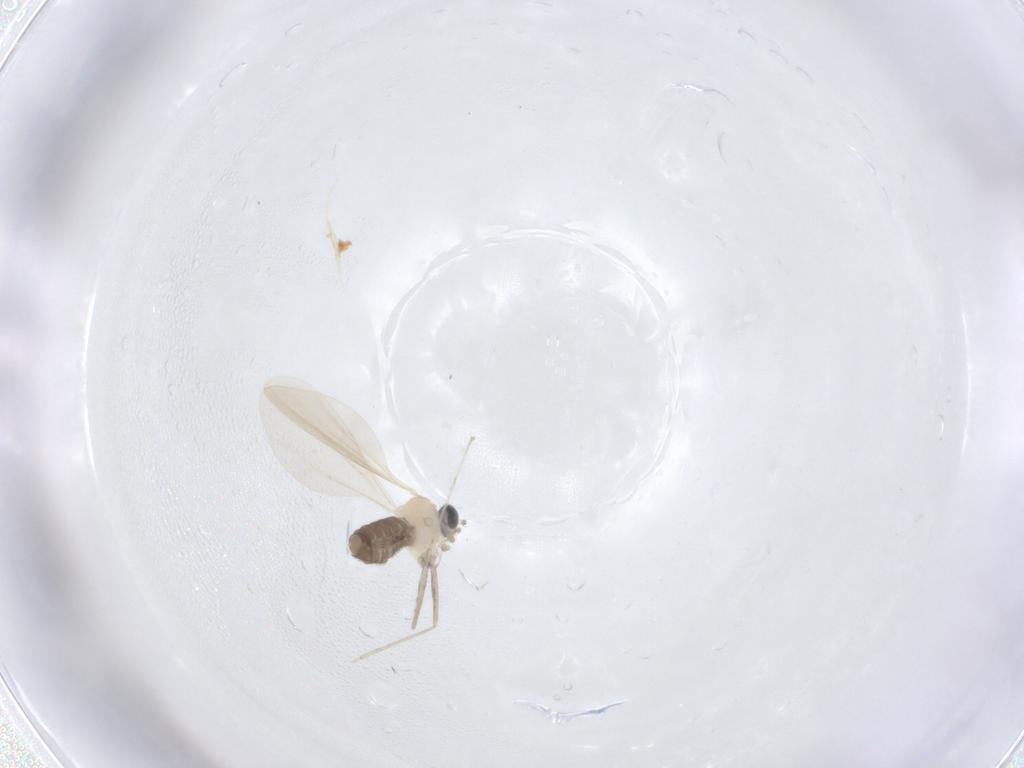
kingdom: Animalia
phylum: Arthropoda
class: Insecta
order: Diptera
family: Cecidomyiidae
